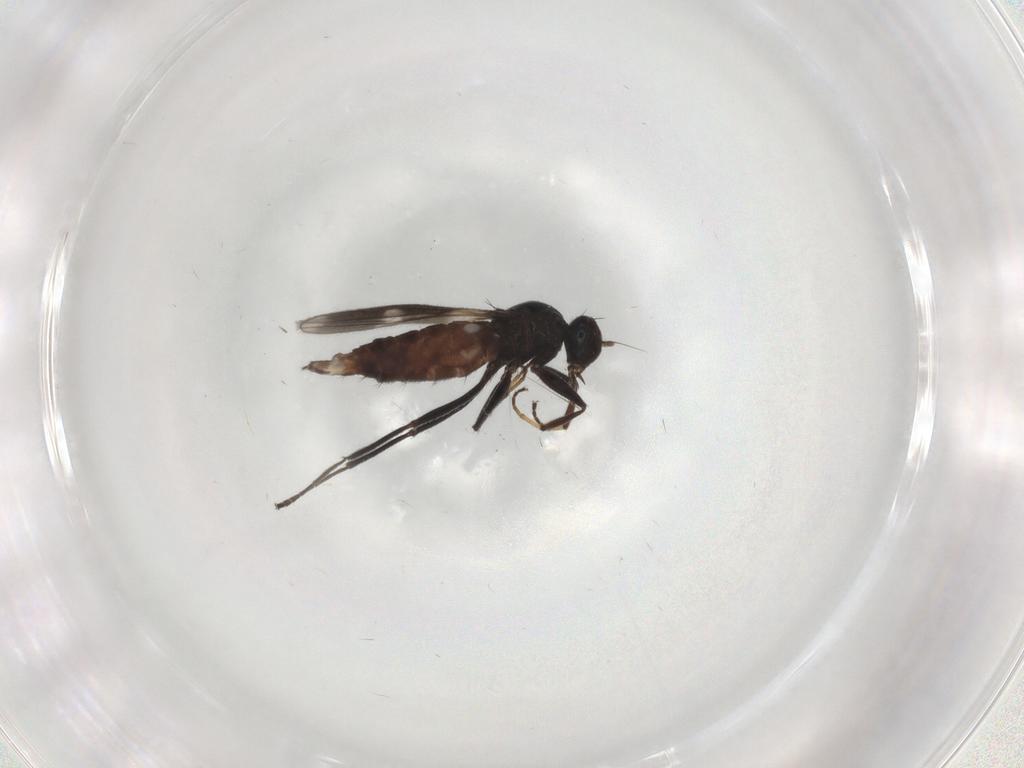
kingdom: Animalia
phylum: Arthropoda
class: Insecta
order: Diptera
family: Hybotidae
